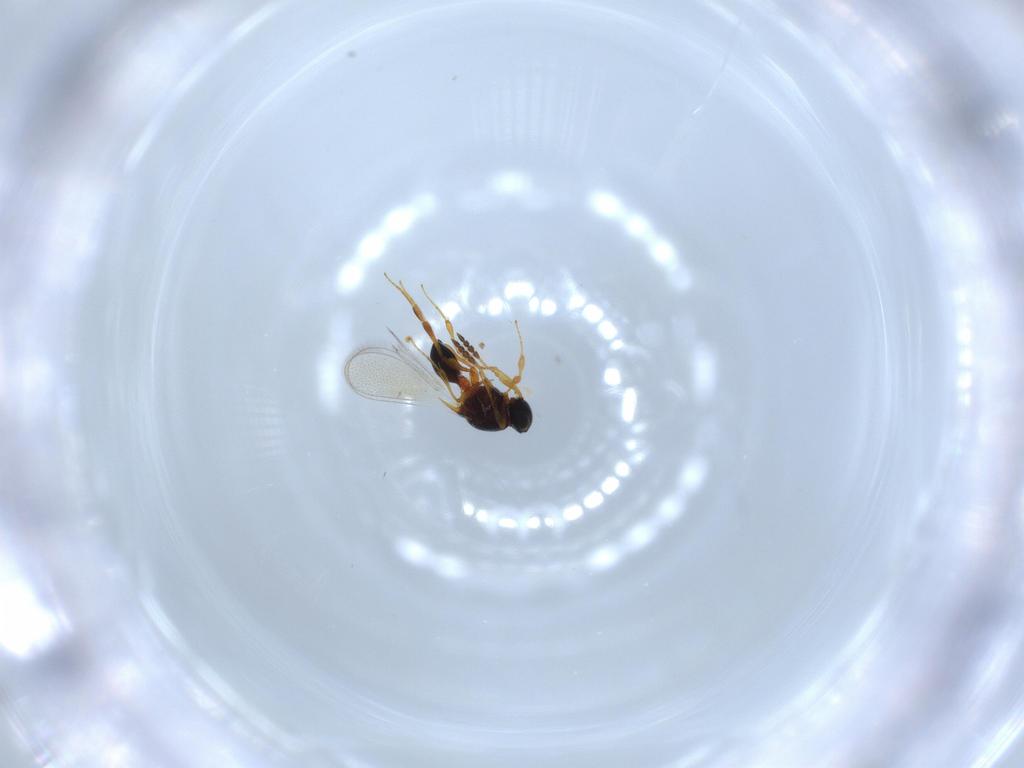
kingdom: Animalia
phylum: Arthropoda
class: Insecta
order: Hymenoptera
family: Platygastridae
